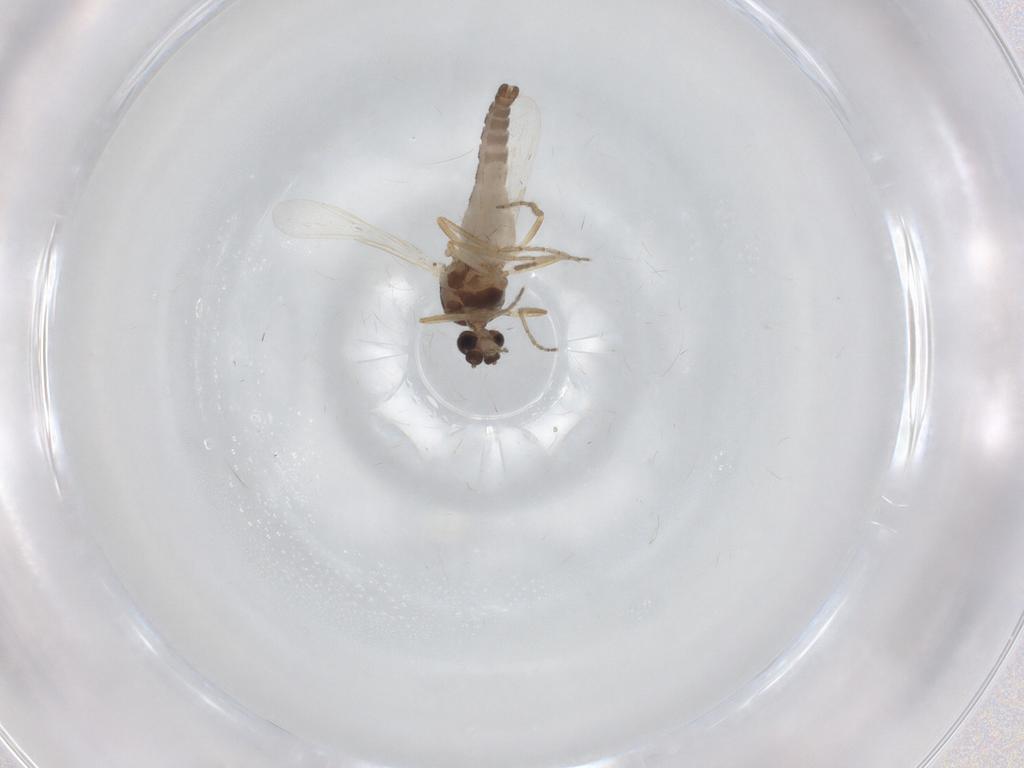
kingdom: Animalia
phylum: Arthropoda
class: Insecta
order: Diptera
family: Ceratopogonidae
